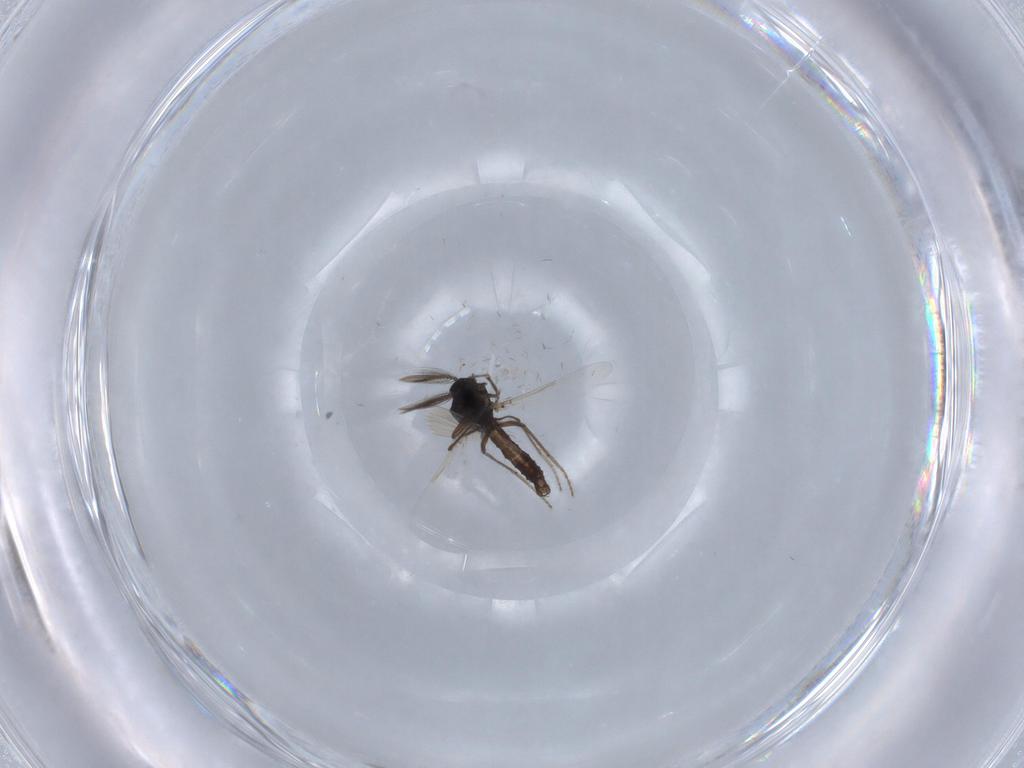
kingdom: Animalia
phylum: Arthropoda
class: Insecta
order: Diptera
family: Ceratopogonidae
